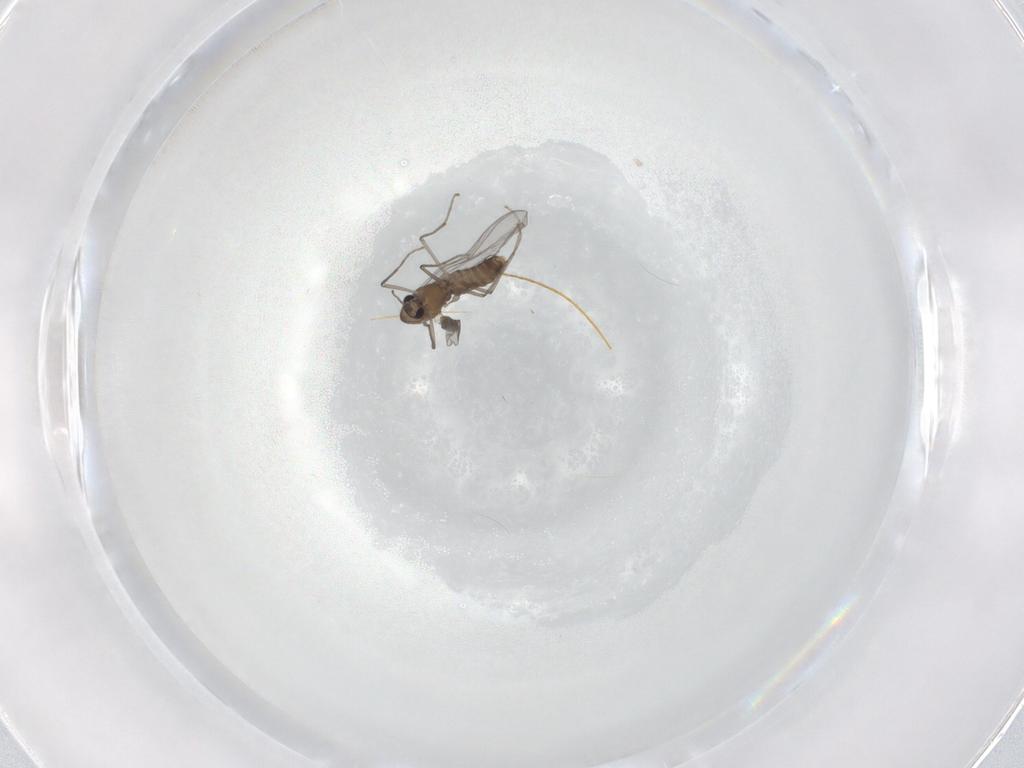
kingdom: Animalia
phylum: Arthropoda
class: Insecta
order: Diptera
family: Chironomidae
